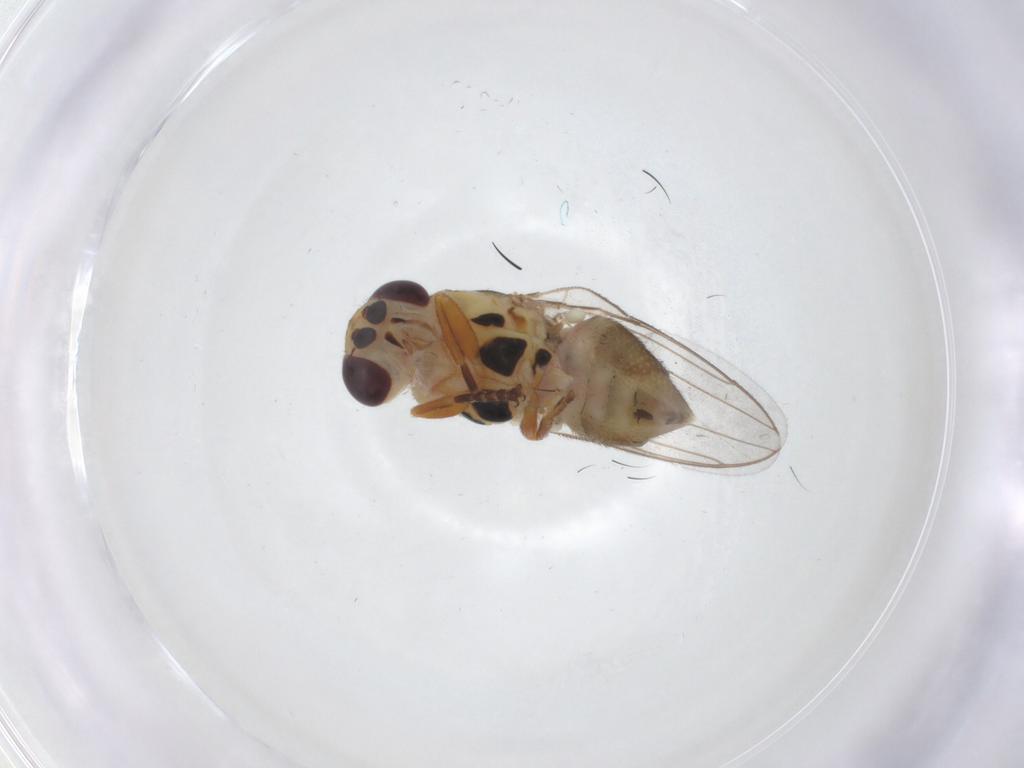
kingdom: Animalia
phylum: Arthropoda
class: Insecta
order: Diptera
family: Chloropidae
